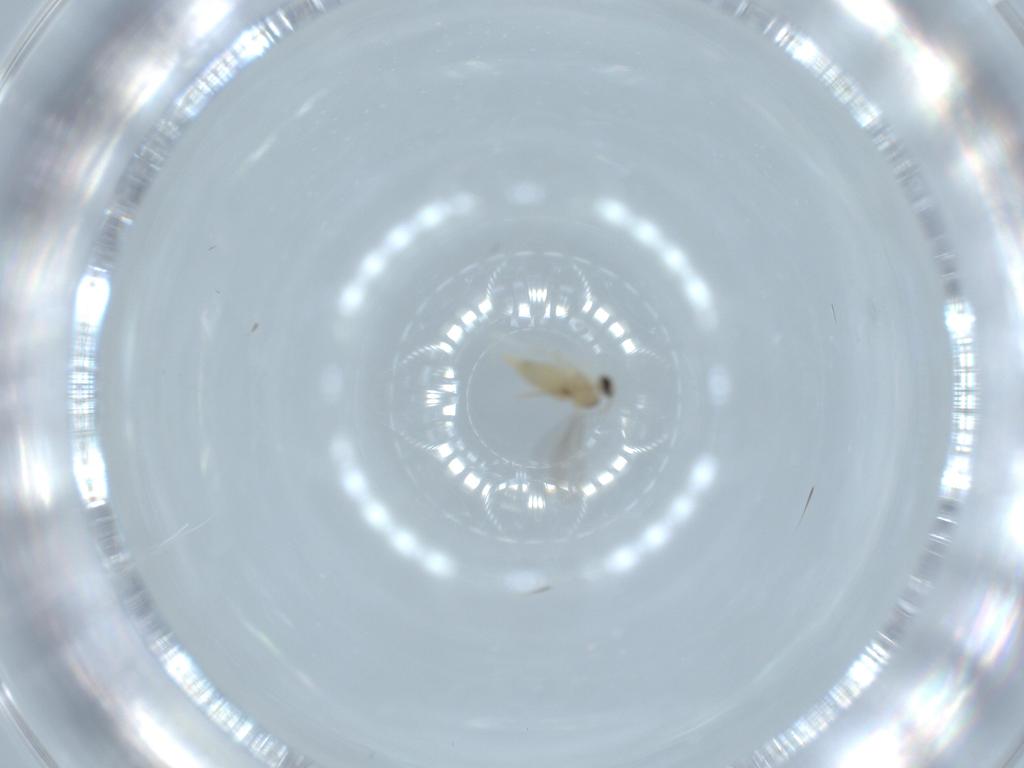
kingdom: Animalia
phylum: Arthropoda
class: Insecta
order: Diptera
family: Cecidomyiidae
